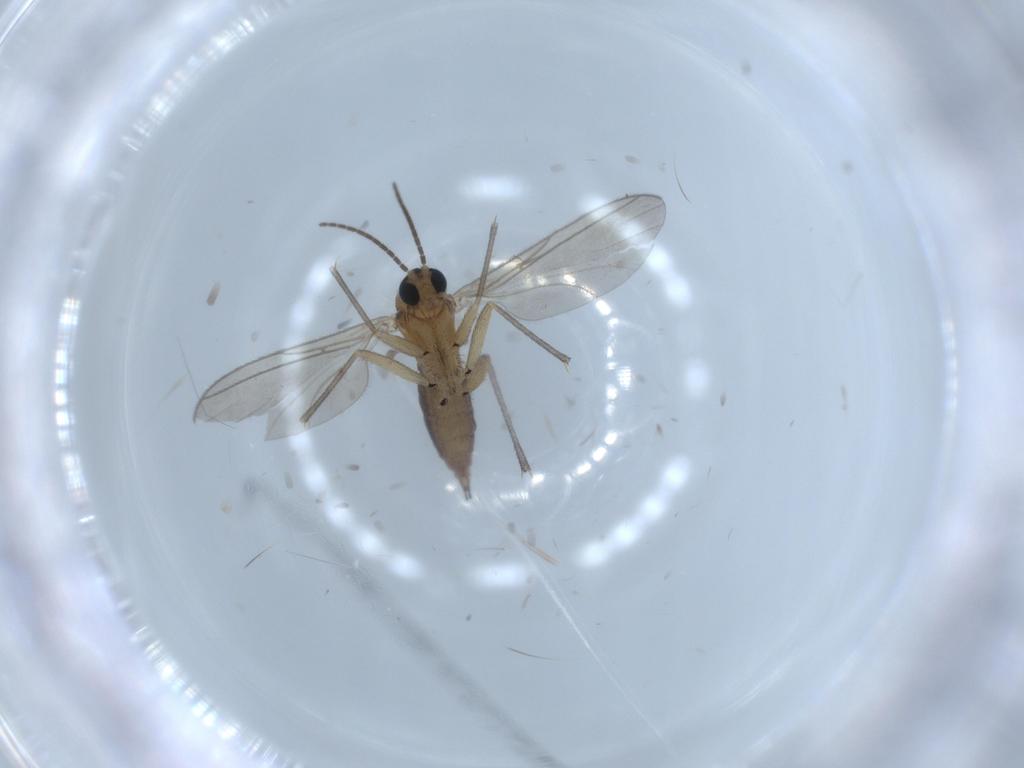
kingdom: Animalia
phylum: Arthropoda
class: Insecta
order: Diptera
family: Sciaridae
